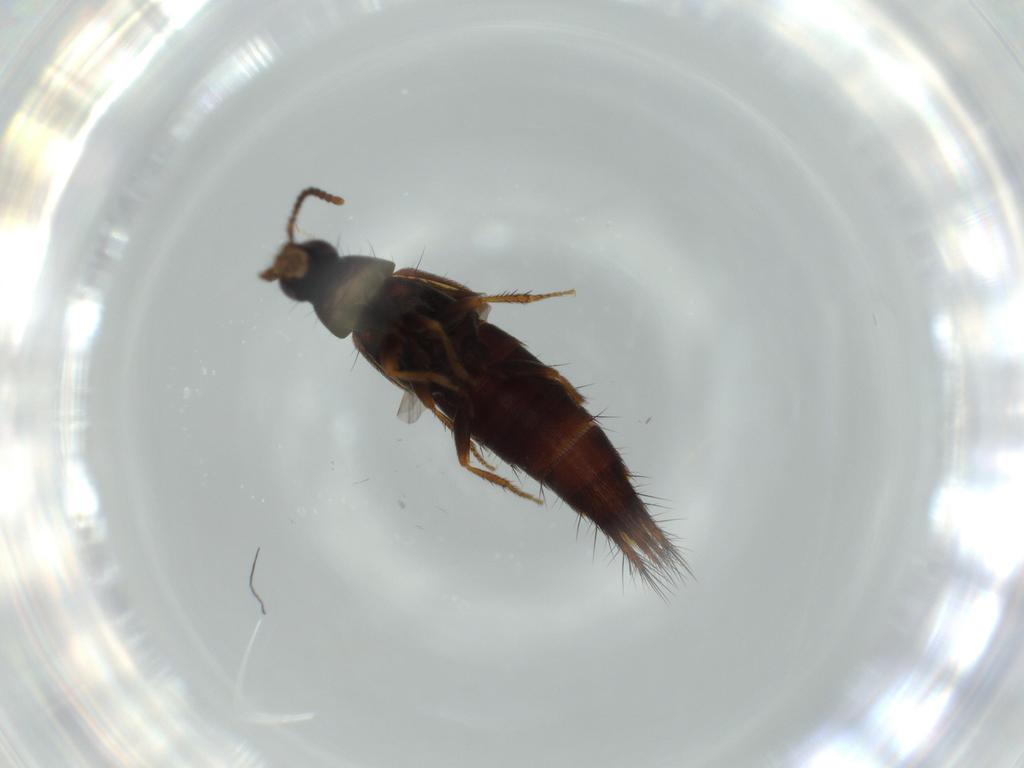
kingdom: Animalia
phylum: Arthropoda
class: Insecta
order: Coleoptera
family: Staphylinidae
